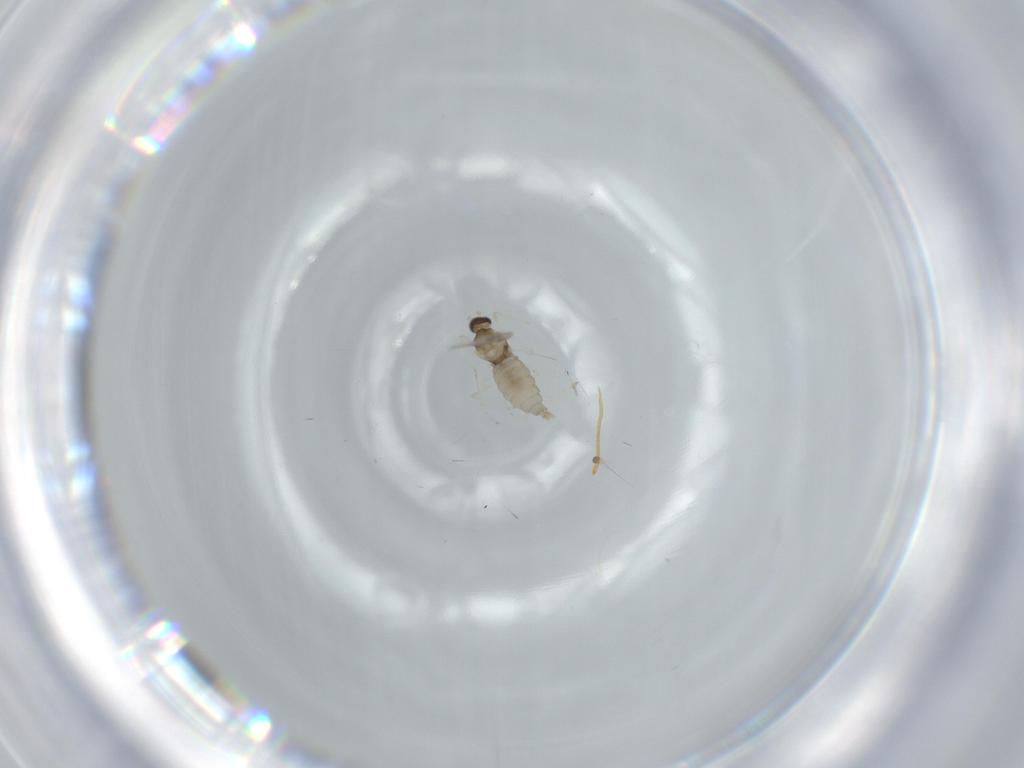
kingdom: Animalia
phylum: Arthropoda
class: Insecta
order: Diptera
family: Cecidomyiidae
